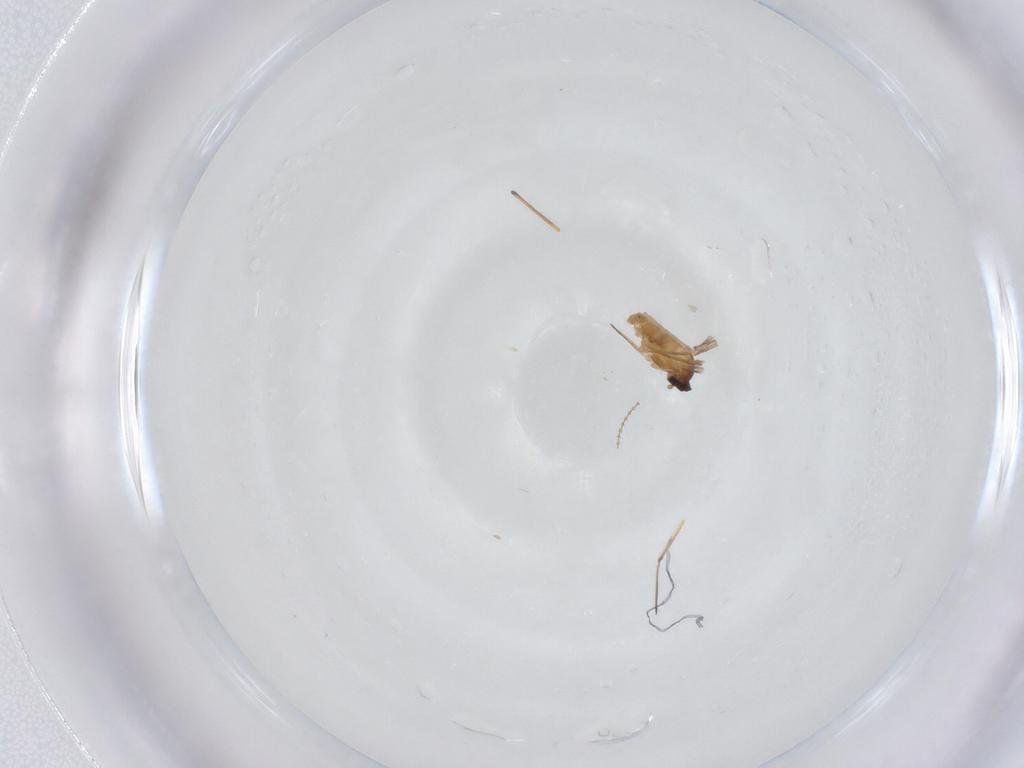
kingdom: Animalia
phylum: Arthropoda
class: Insecta
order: Diptera
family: Cecidomyiidae
